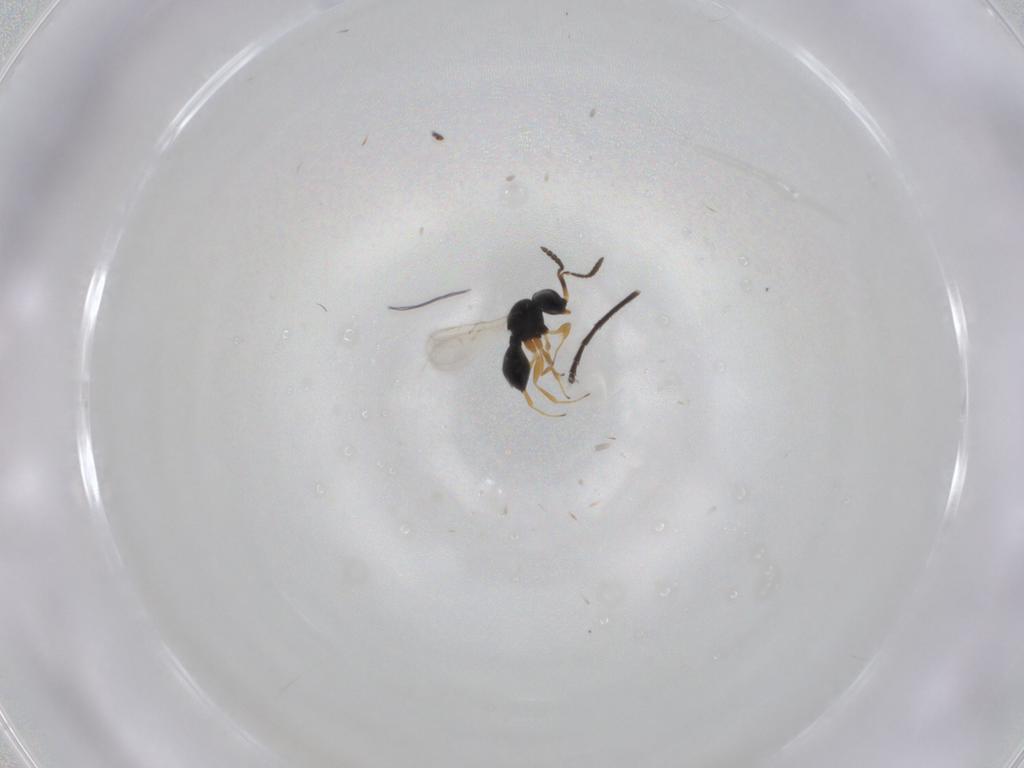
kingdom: Animalia
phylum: Arthropoda
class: Insecta
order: Hymenoptera
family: Scelionidae
